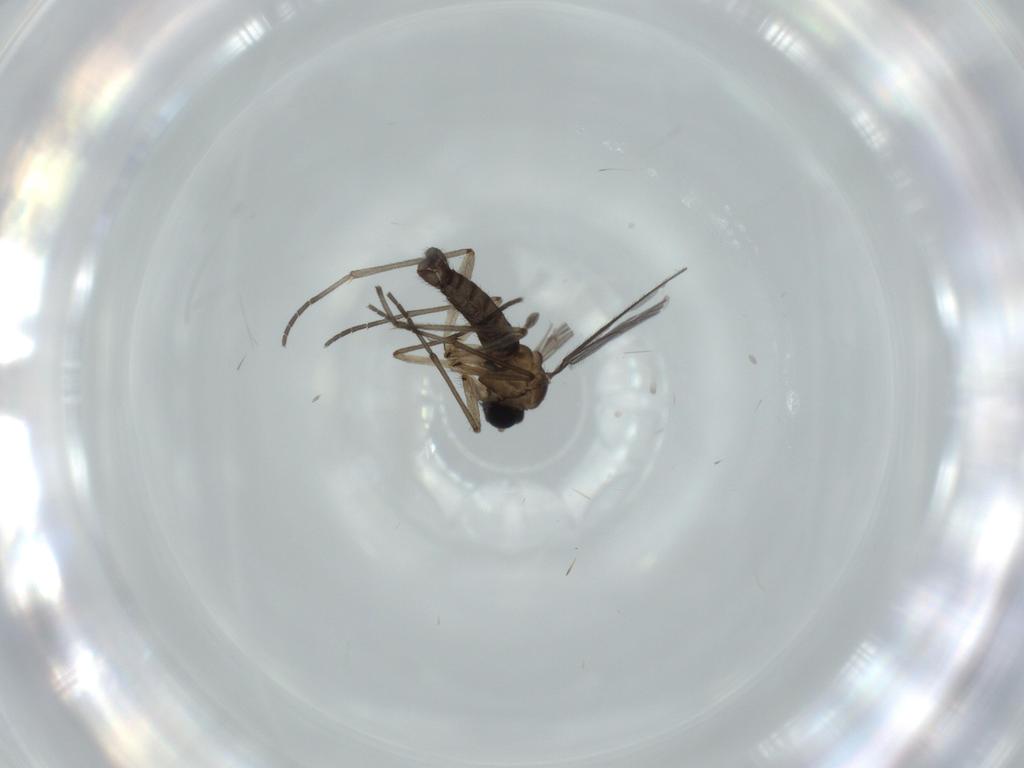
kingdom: Animalia
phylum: Arthropoda
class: Insecta
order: Diptera
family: Sciaridae
